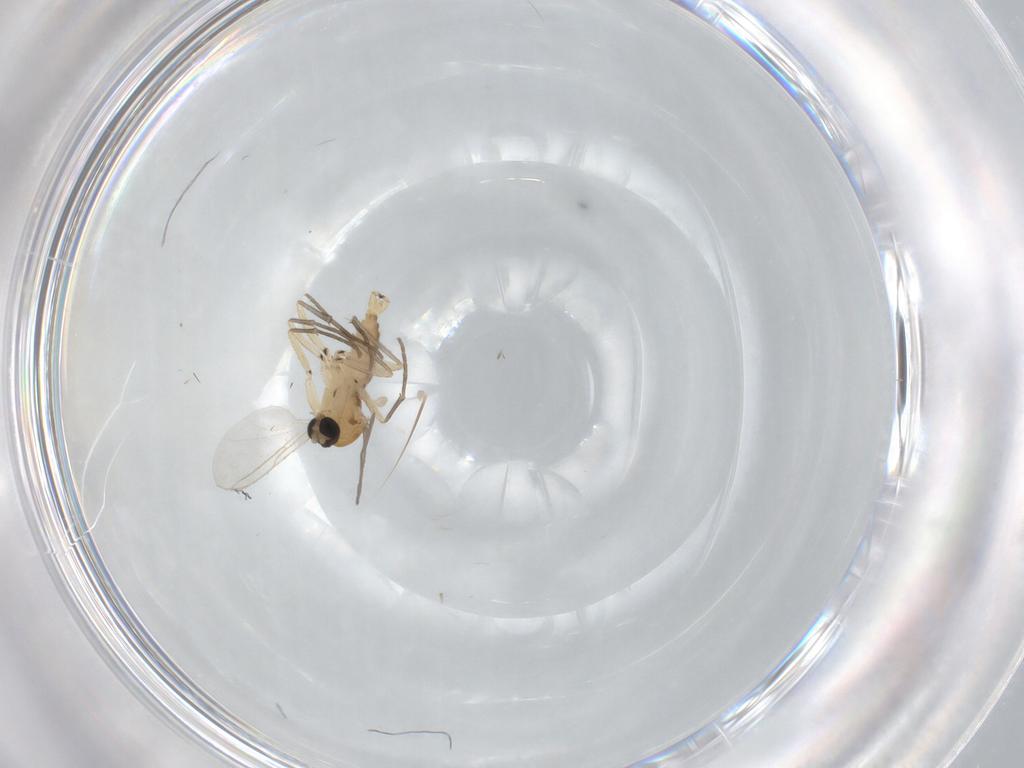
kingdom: Animalia
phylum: Arthropoda
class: Insecta
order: Diptera
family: Sciaridae
